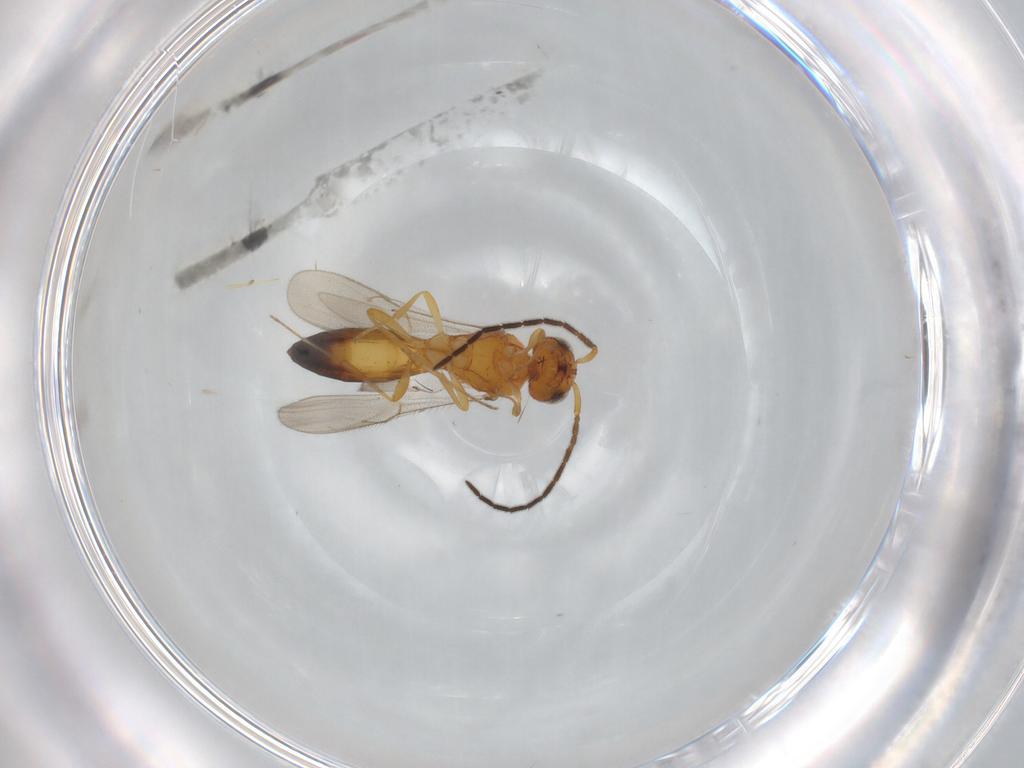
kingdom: Animalia
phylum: Arthropoda
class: Insecta
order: Hymenoptera
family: Scelionidae
